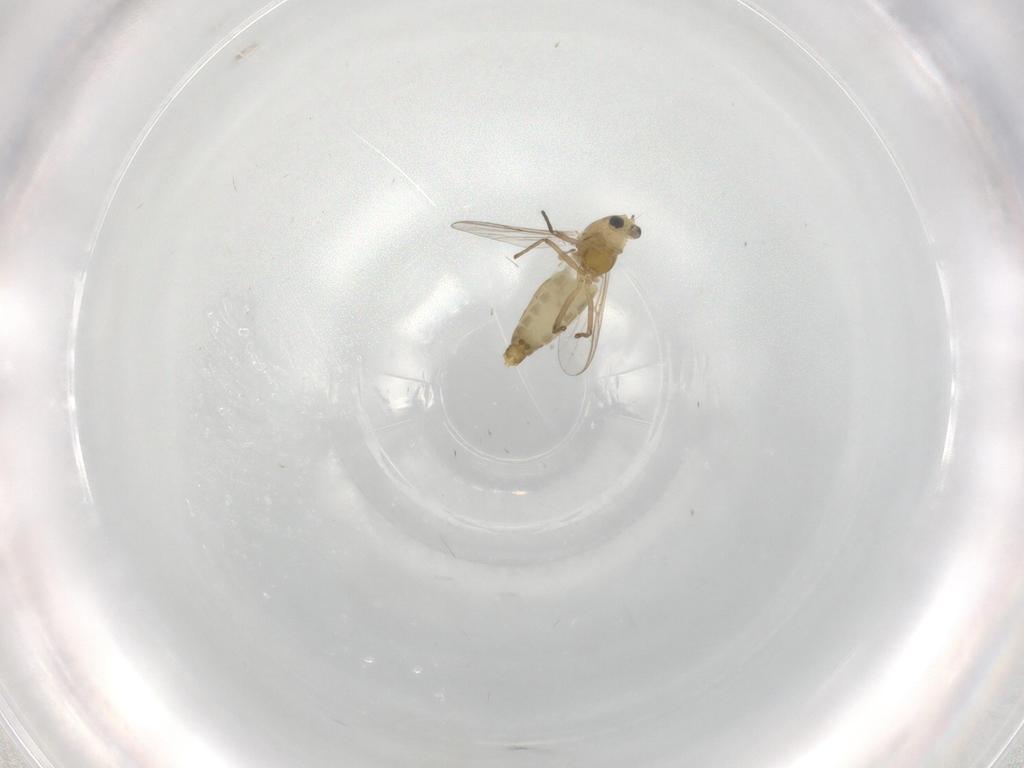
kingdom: Animalia
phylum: Arthropoda
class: Insecta
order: Diptera
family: Chironomidae
